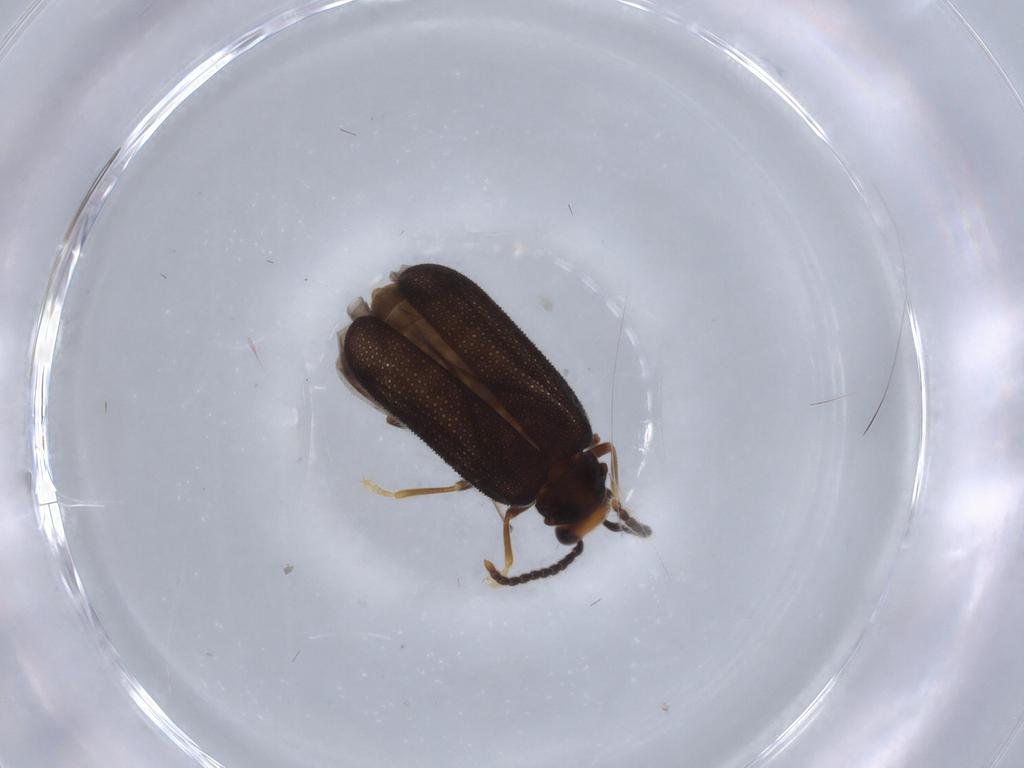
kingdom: Animalia
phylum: Arthropoda
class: Insecta
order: Coleoptera
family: Cantharidae
